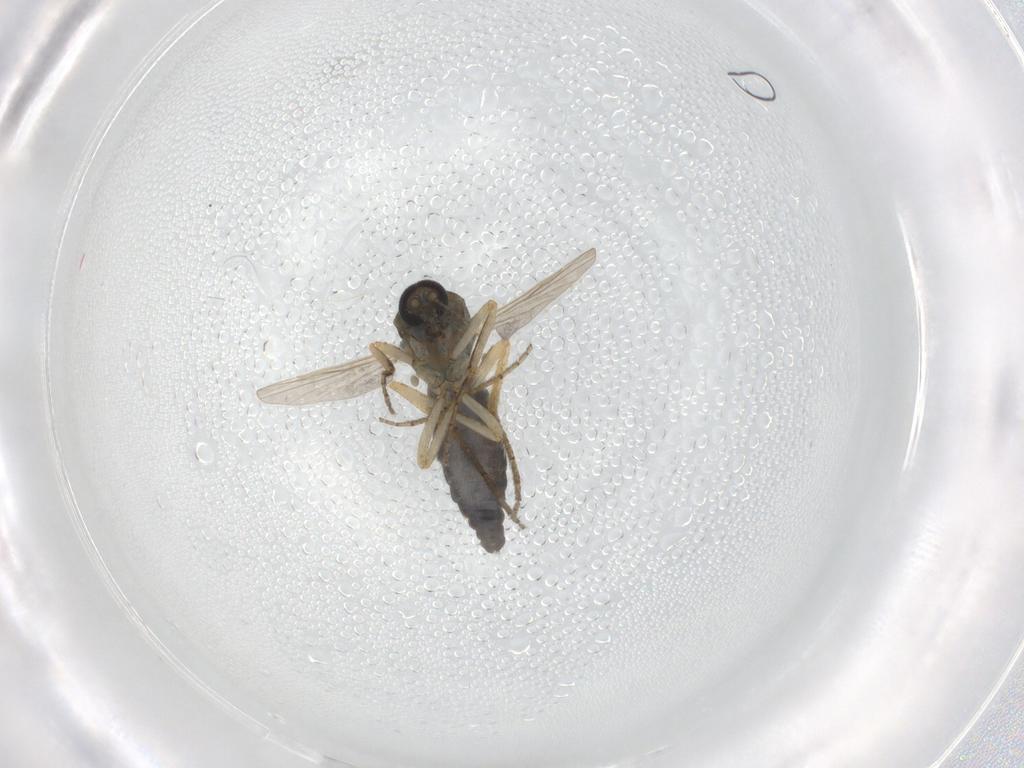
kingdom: Animalia
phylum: Arthropoda
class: Insecta
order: Diptera
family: Ceratopogonidae
